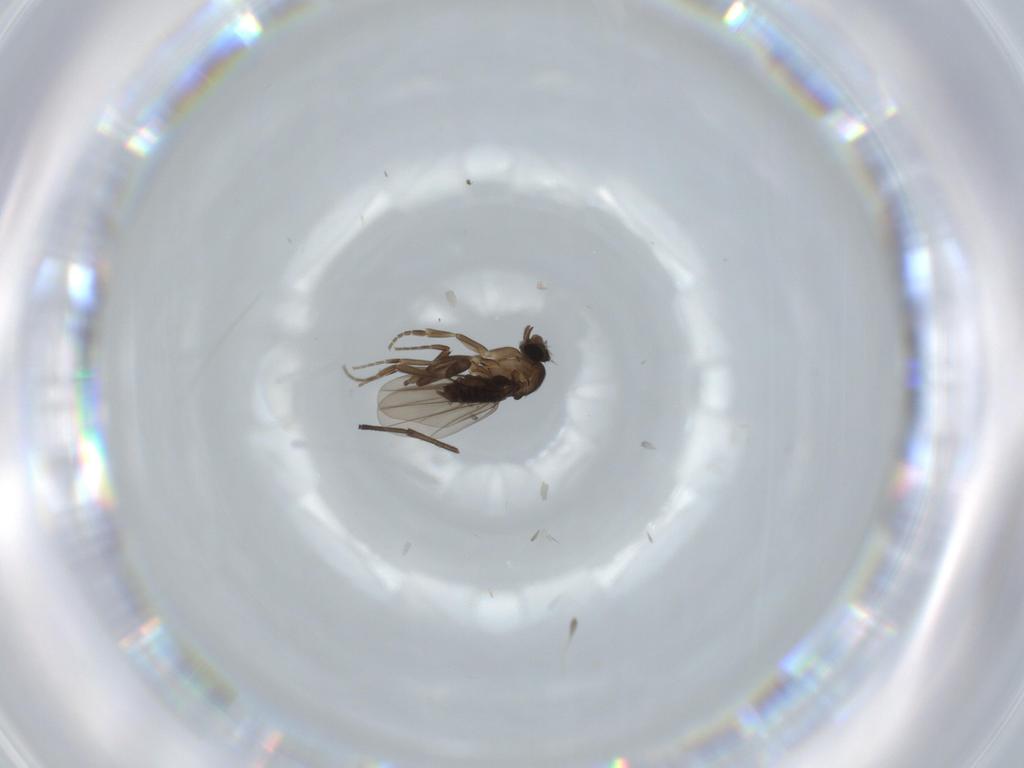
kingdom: Animalia
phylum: Arthropoda
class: Insecta
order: Diptera
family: Phoridae
